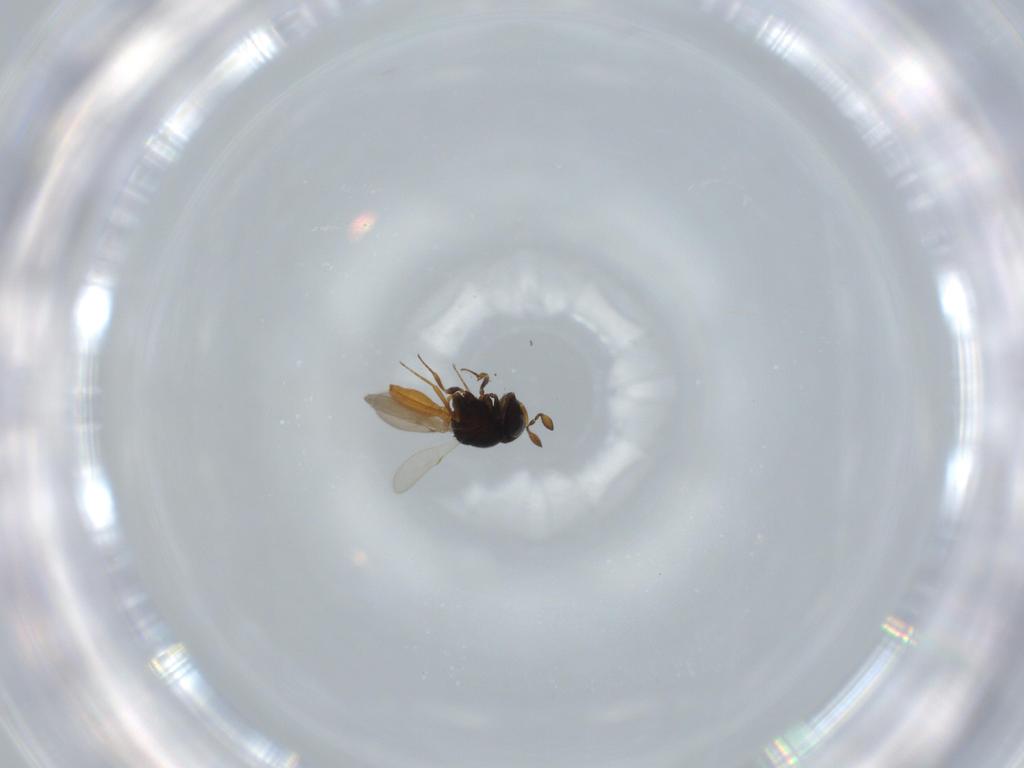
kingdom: Animalia
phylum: Arthropoda
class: Insecta
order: Hymenoptera
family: Scelionidae
